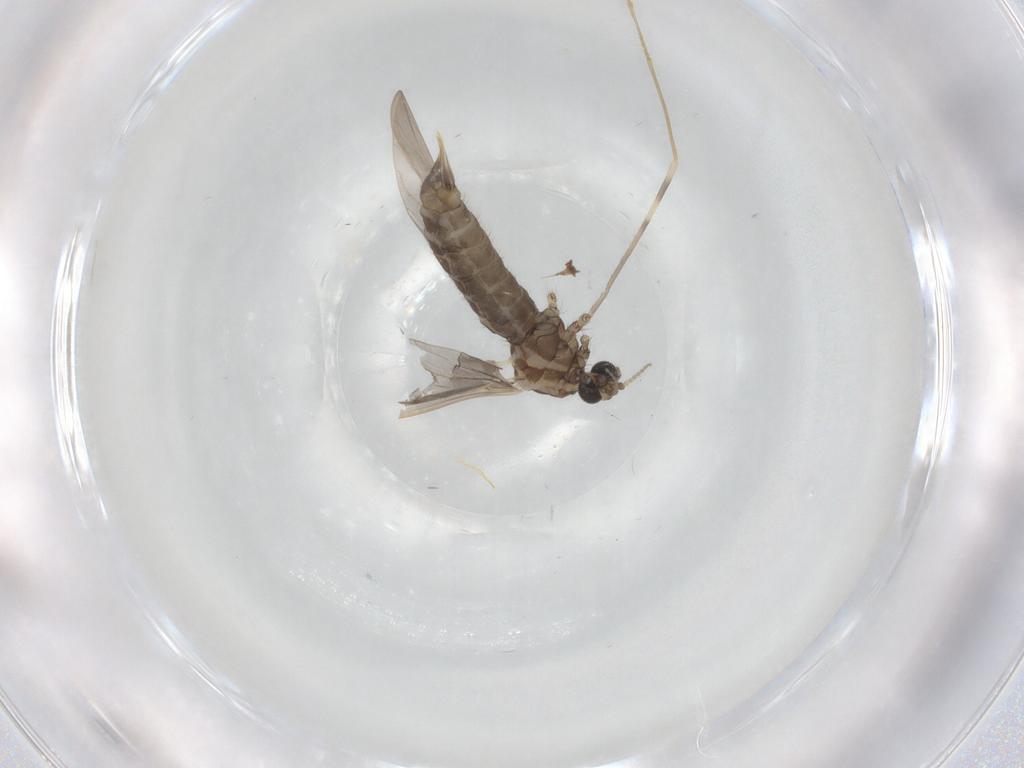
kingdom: Animalia
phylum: Arthropoda
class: Insecta
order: Diptera
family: Limoniidae
